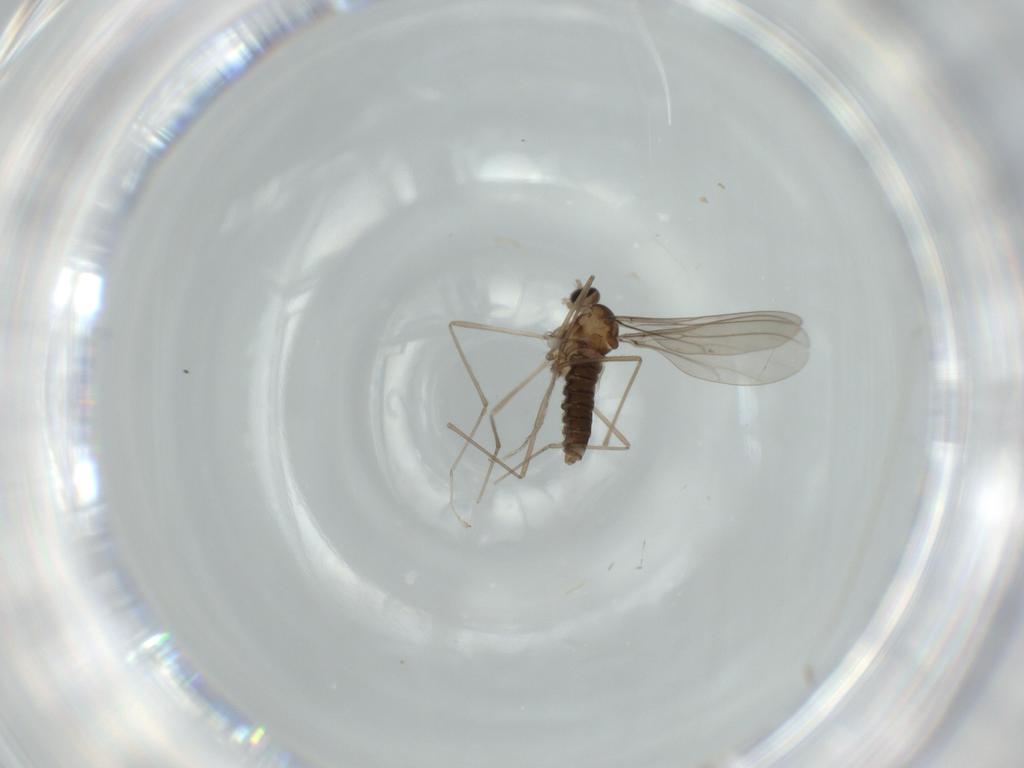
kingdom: Animalia
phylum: Arthropoda
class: Insecta
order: Diptera
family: Cecidomyiidae
